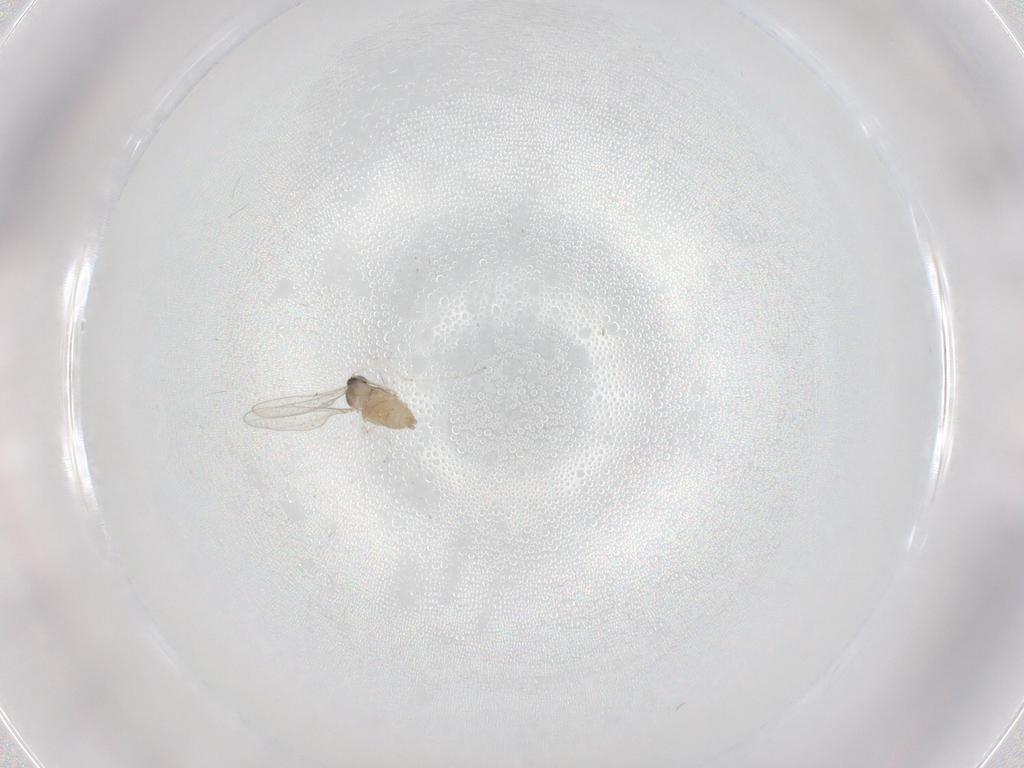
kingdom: Animalia
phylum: Arthropoda
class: Insecta
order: Diptera
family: Cecidomyiidae
